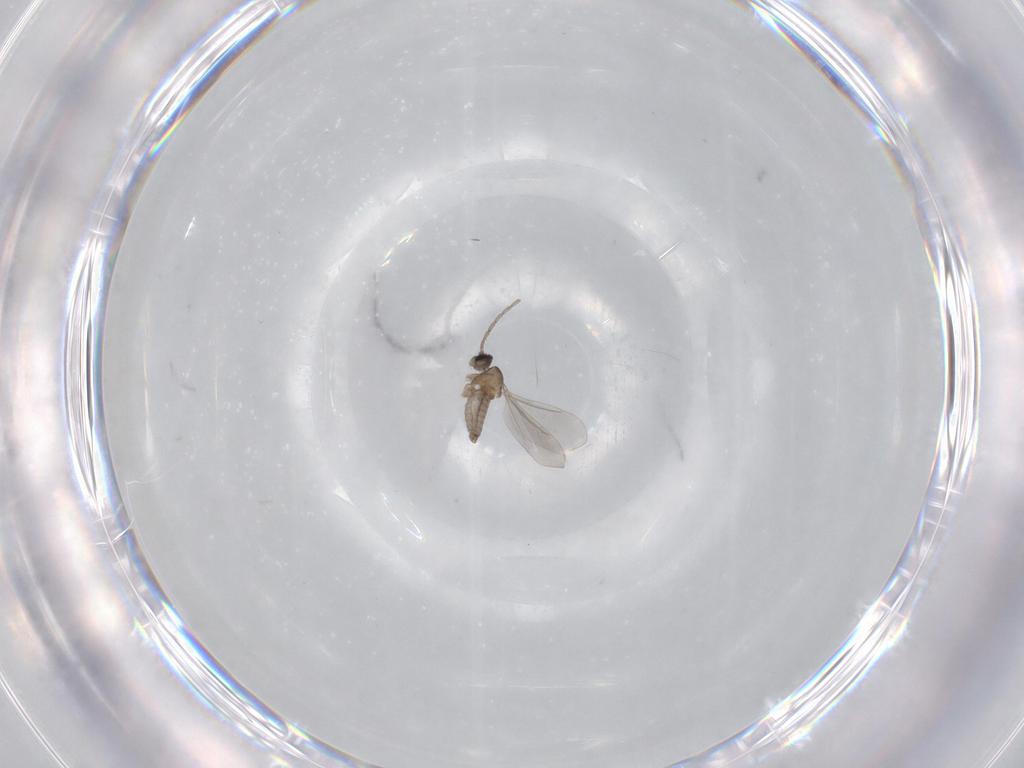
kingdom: Animalia
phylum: Arthropoda
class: Insecta
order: Diptera
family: Cecidomyiidae
